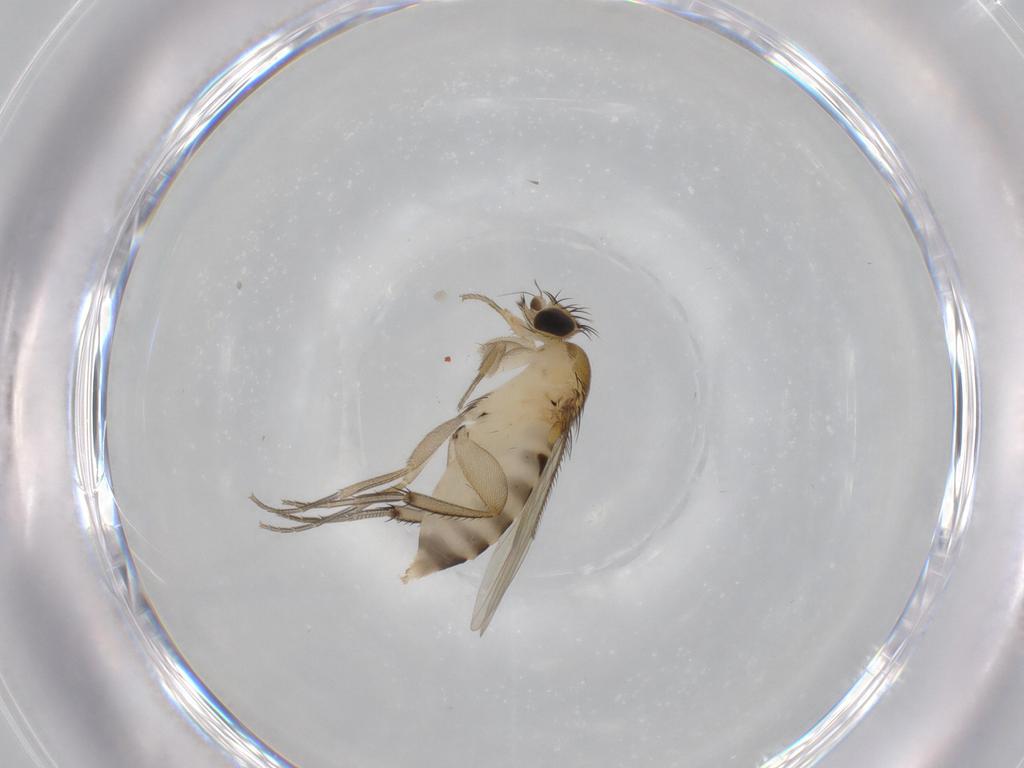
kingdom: Animalia
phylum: Arthropoda
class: Insecta
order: Diptera
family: Phoridae
